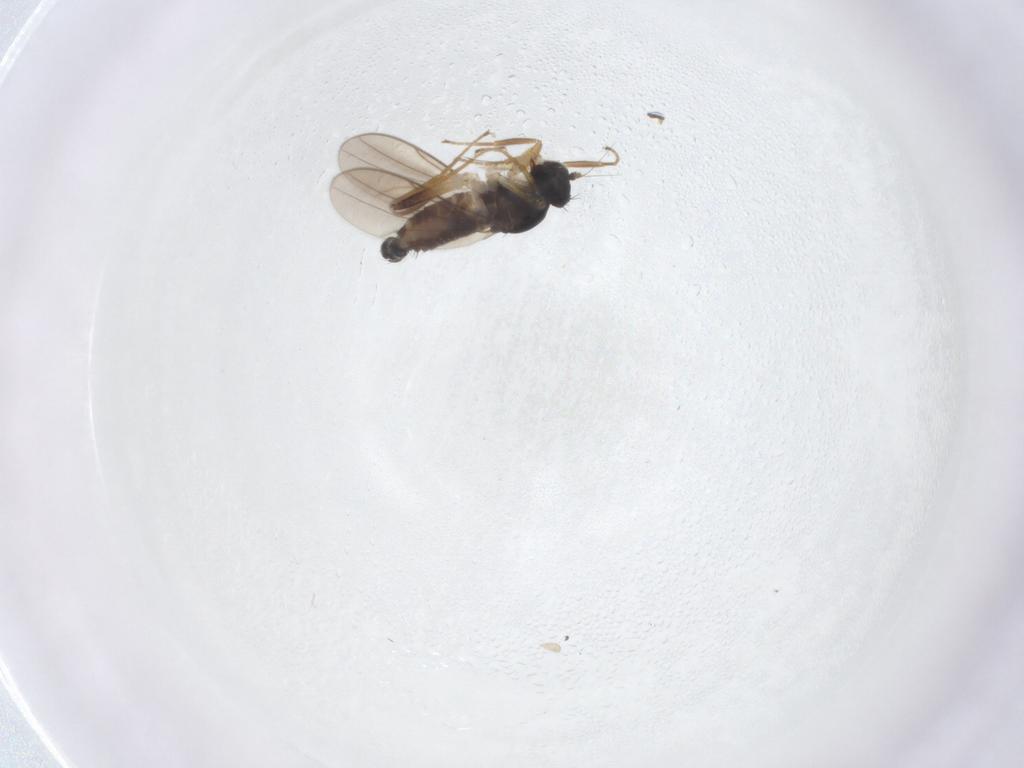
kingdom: Animalia
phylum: Arthropoda
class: Insecta
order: Diptera
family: Hybotidae
